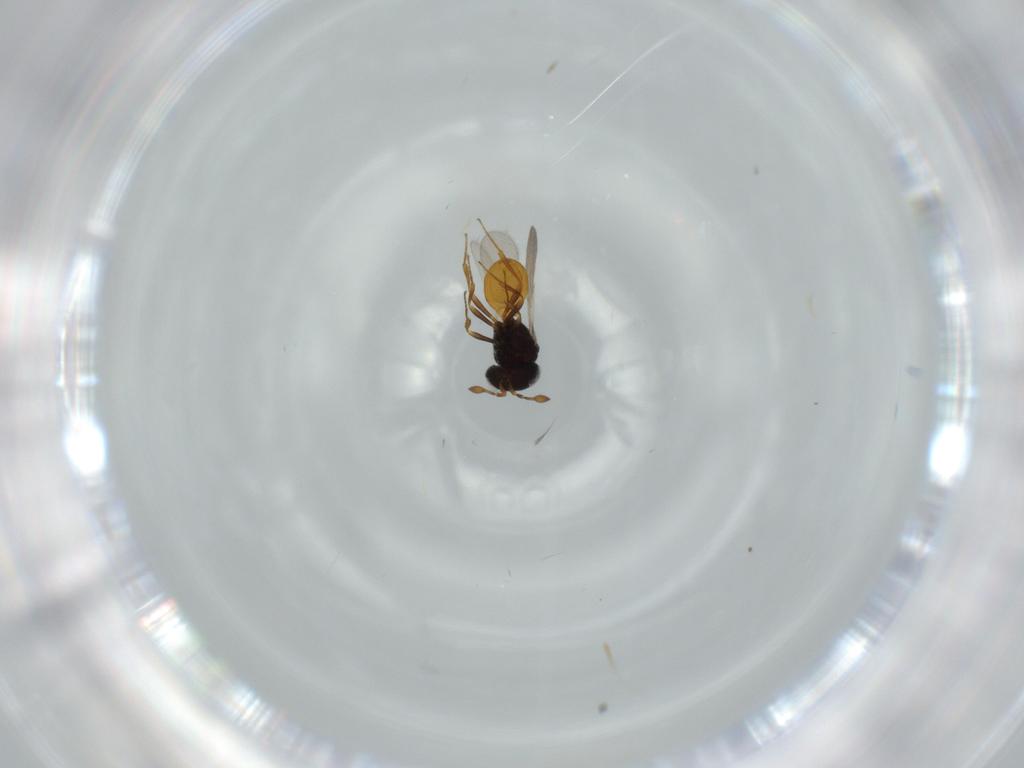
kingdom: Animalia
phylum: Arthropoda
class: Insecta
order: Hymenoptera
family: Scelionidae
